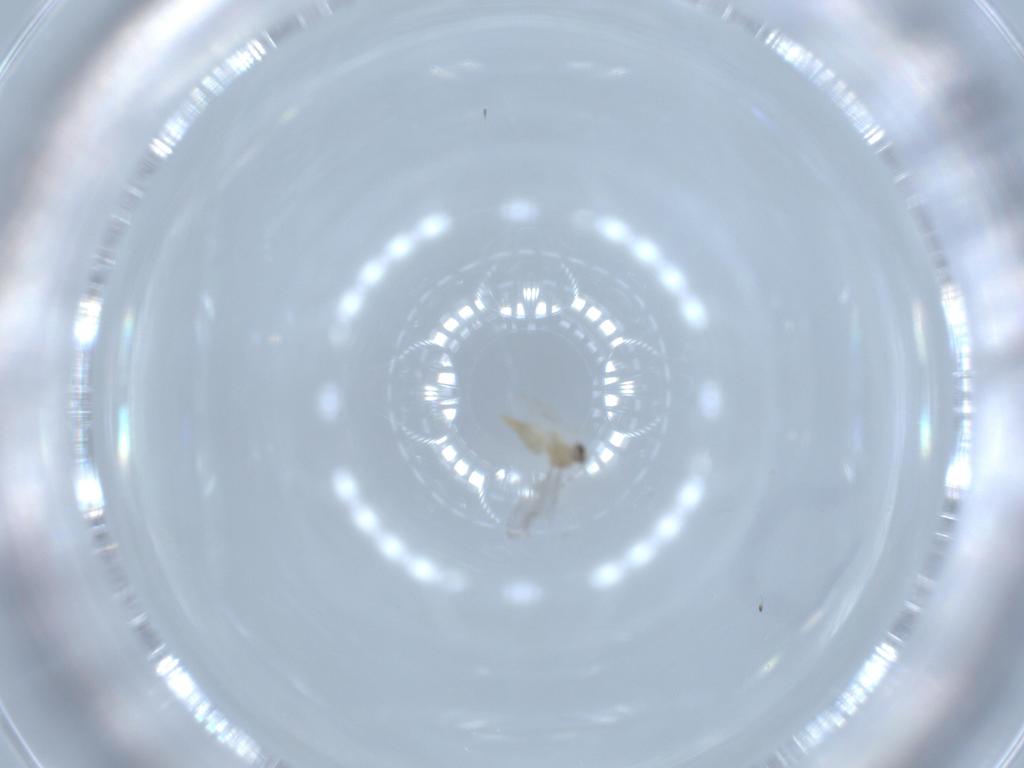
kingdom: Animalia
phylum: Arthropoda
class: Insecta
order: Diptera
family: Cecidomyiidae
